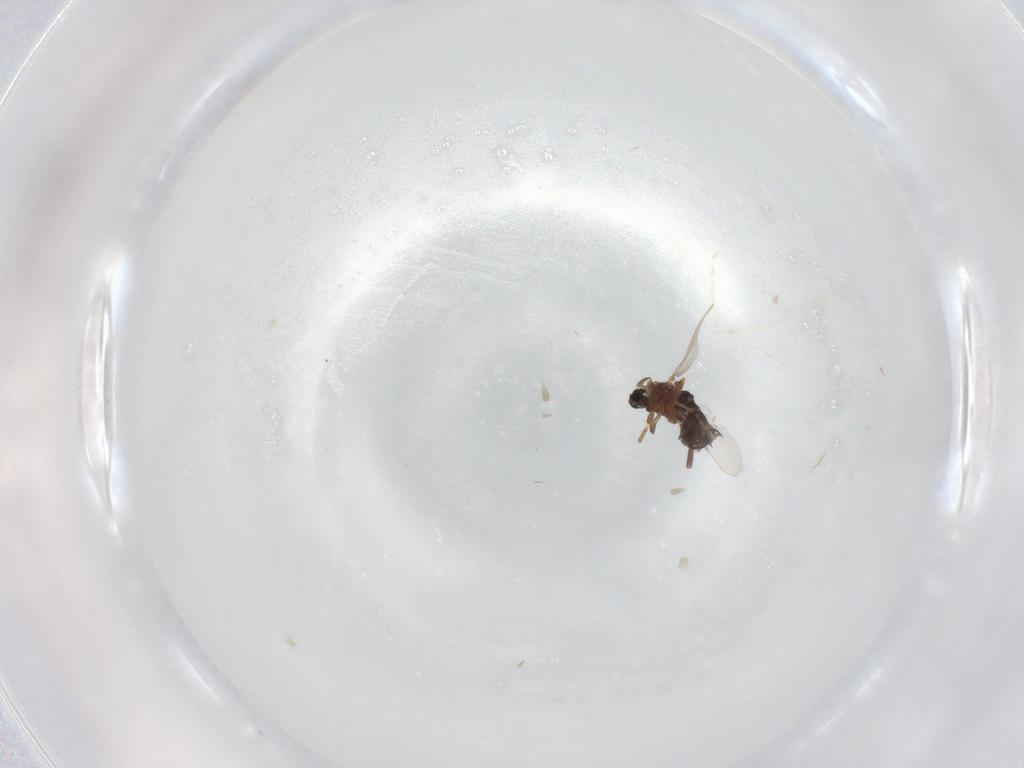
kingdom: Animalia
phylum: Arthropoda
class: Insecta
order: Diptera
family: Scatopsidae
